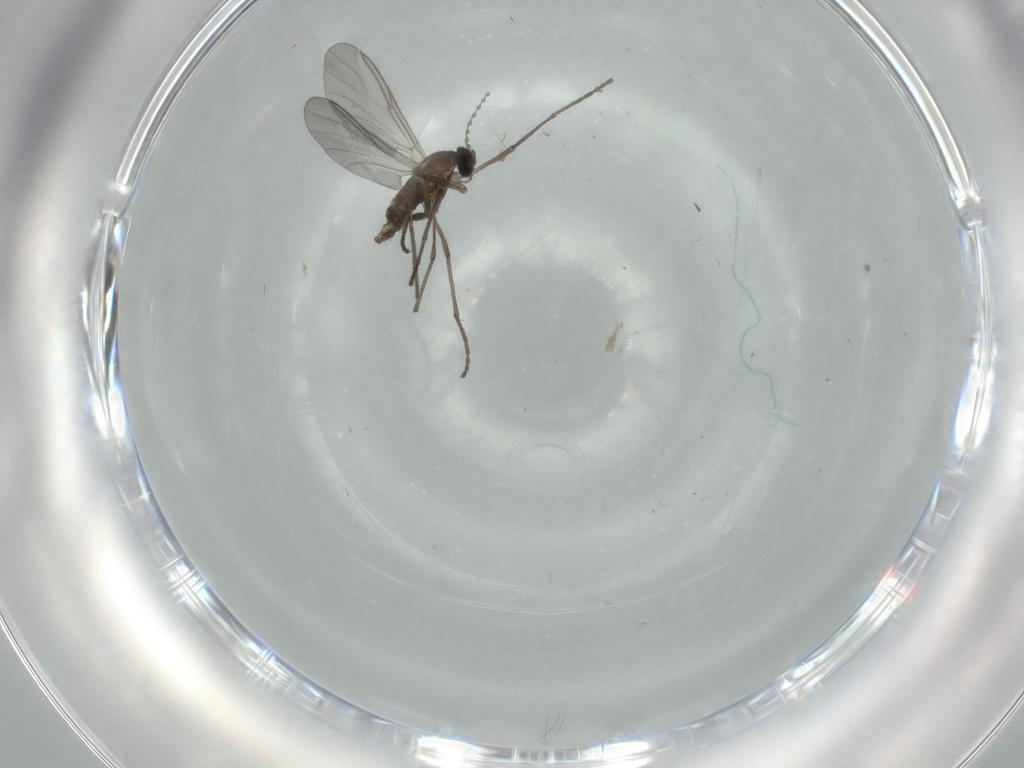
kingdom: Animalia
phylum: Arthropoda
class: Insecta
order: Diptera
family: Cecidomyiidae
